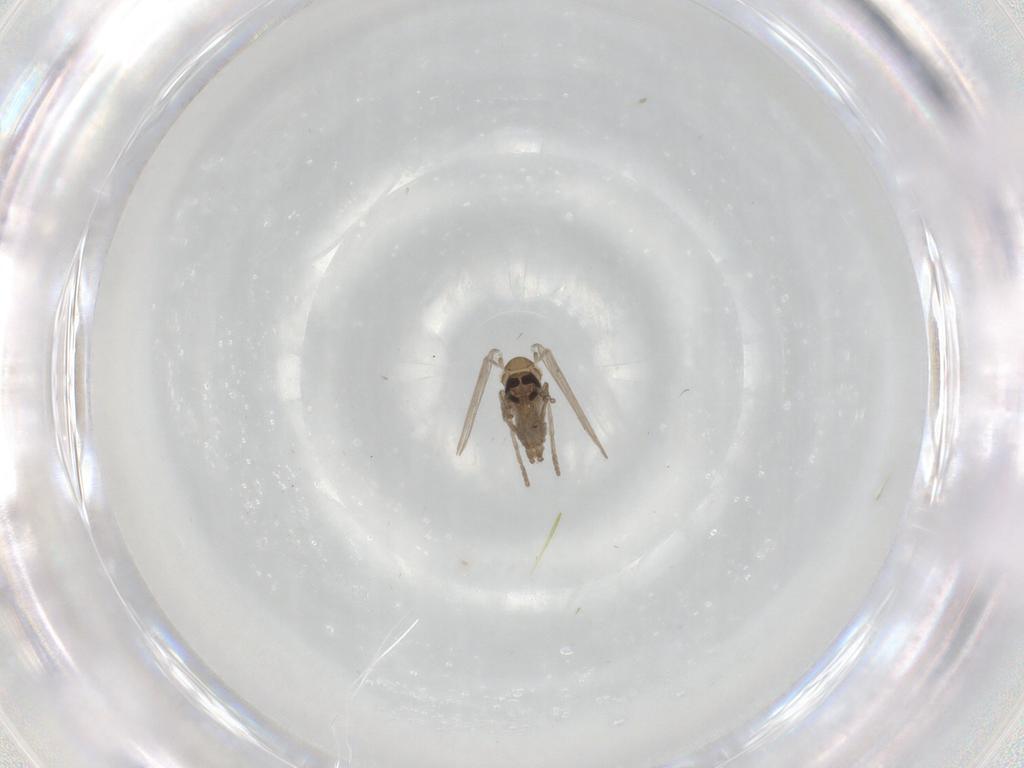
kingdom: Animalia
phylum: Arthropoda
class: Insecta
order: Diptera
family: Psychodidae
